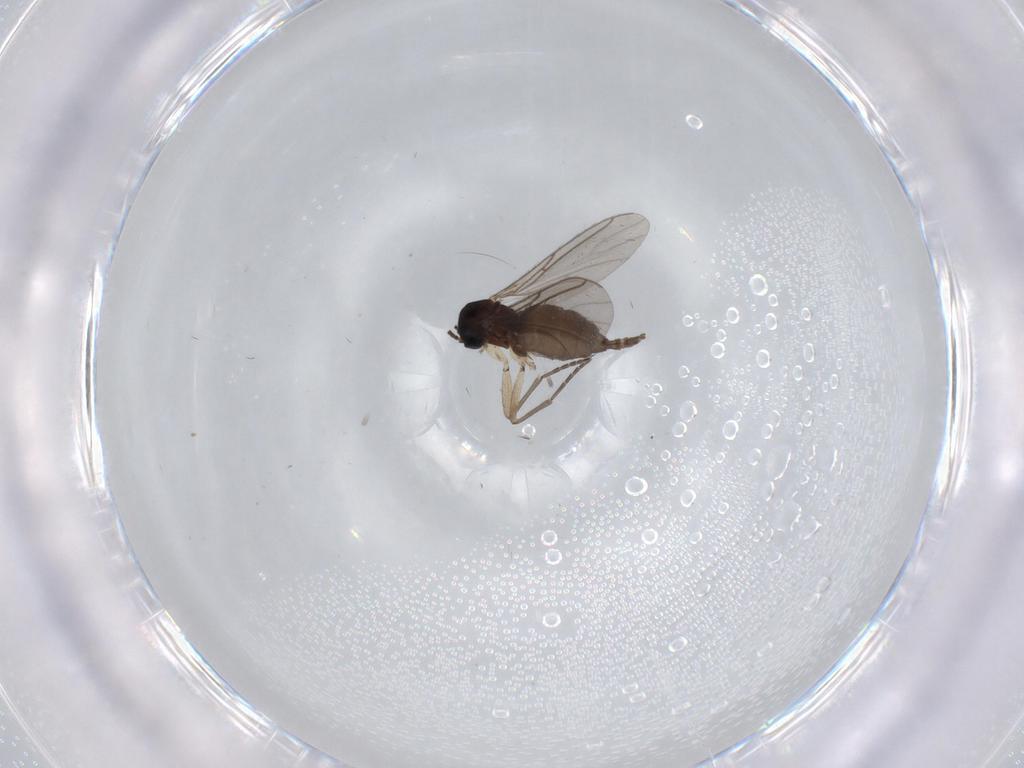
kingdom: Animalia
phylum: Arthropoda
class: Insecta
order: Diptera
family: Sciaridae
